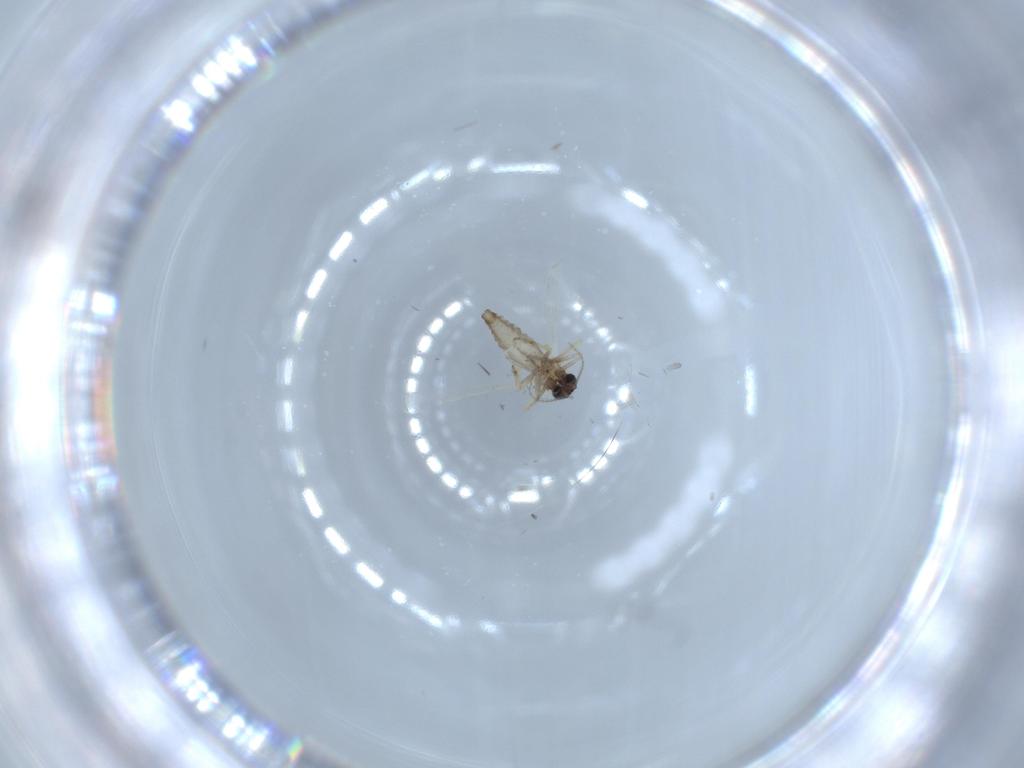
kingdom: Animalia
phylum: Arthropoda
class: Insecta
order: Diptera
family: Ceratopogonidae
